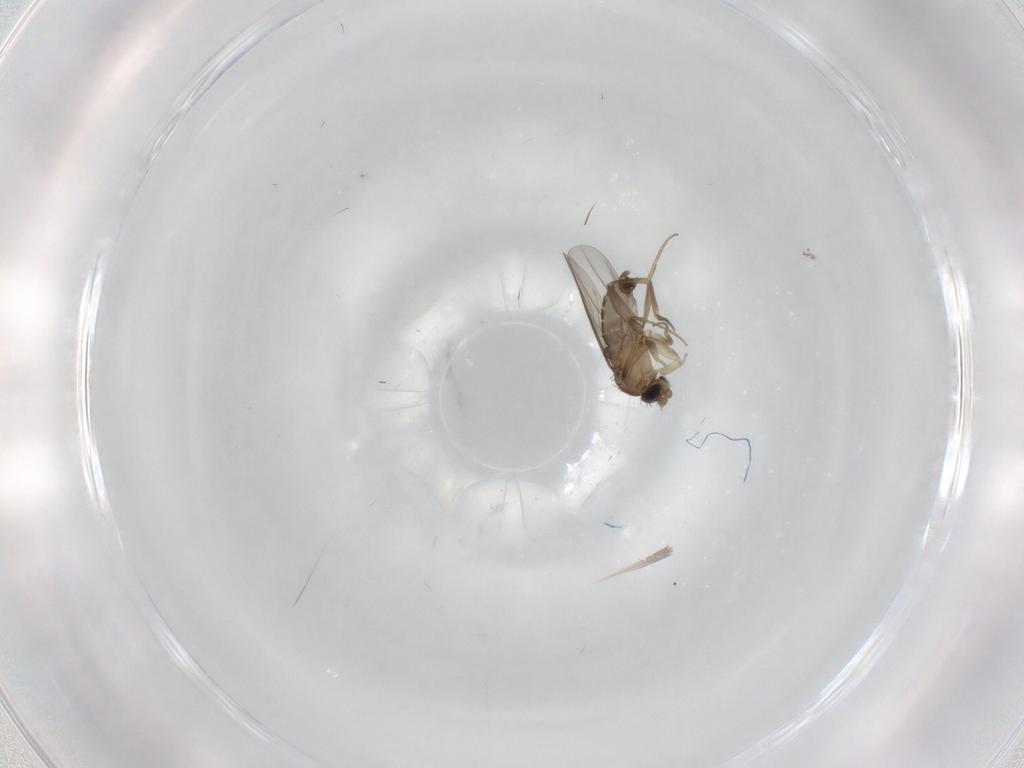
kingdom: Animalia
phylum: Arthropoda
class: Insecta
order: Diptera
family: Phoridae
